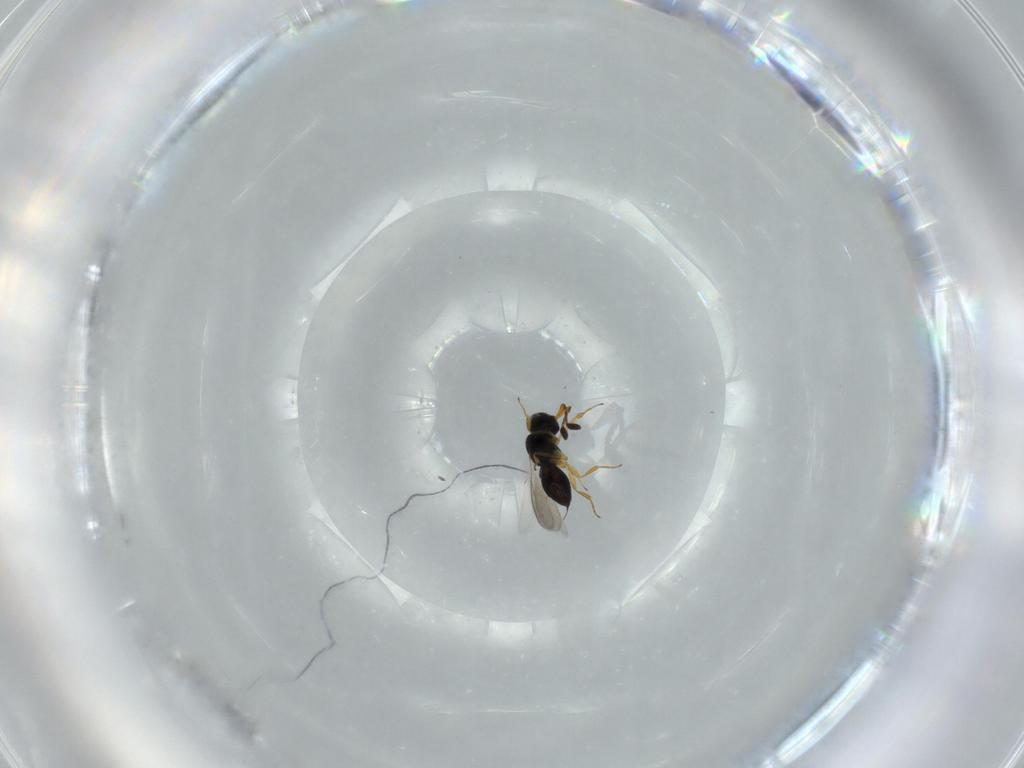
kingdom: Animalia
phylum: Arthropoda
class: Insecta
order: Hymenoptera
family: Scelionidae
